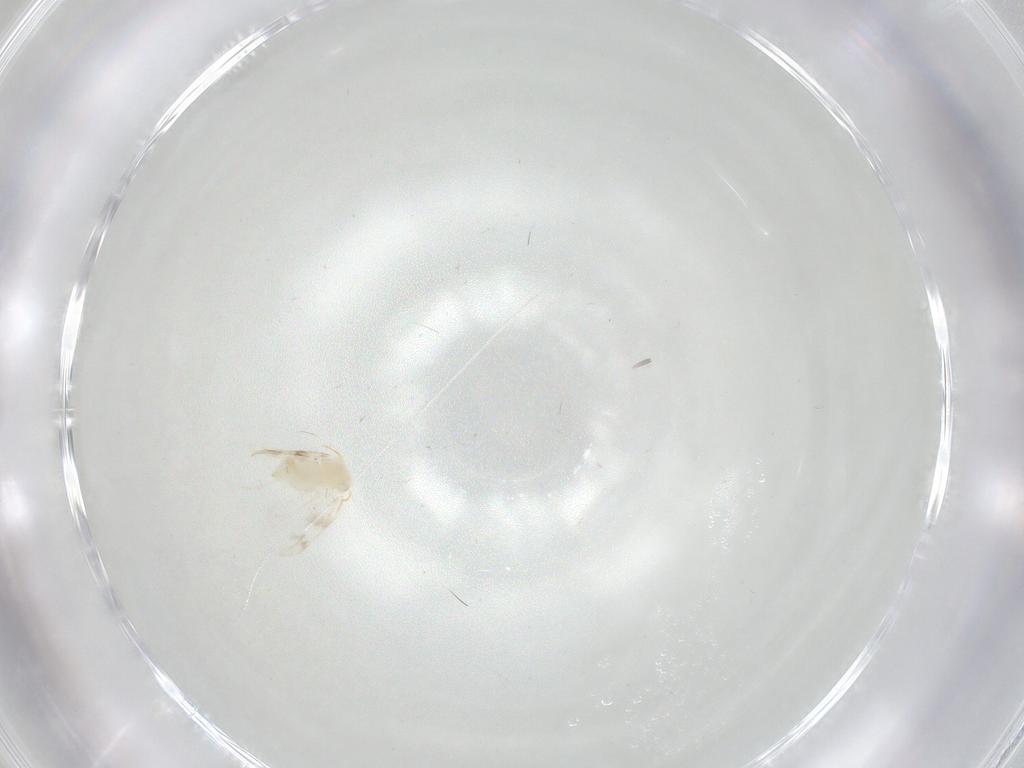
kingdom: Animalia
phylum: Arthropoda
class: Insecta
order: Hemiptera
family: Aleyrodidae
